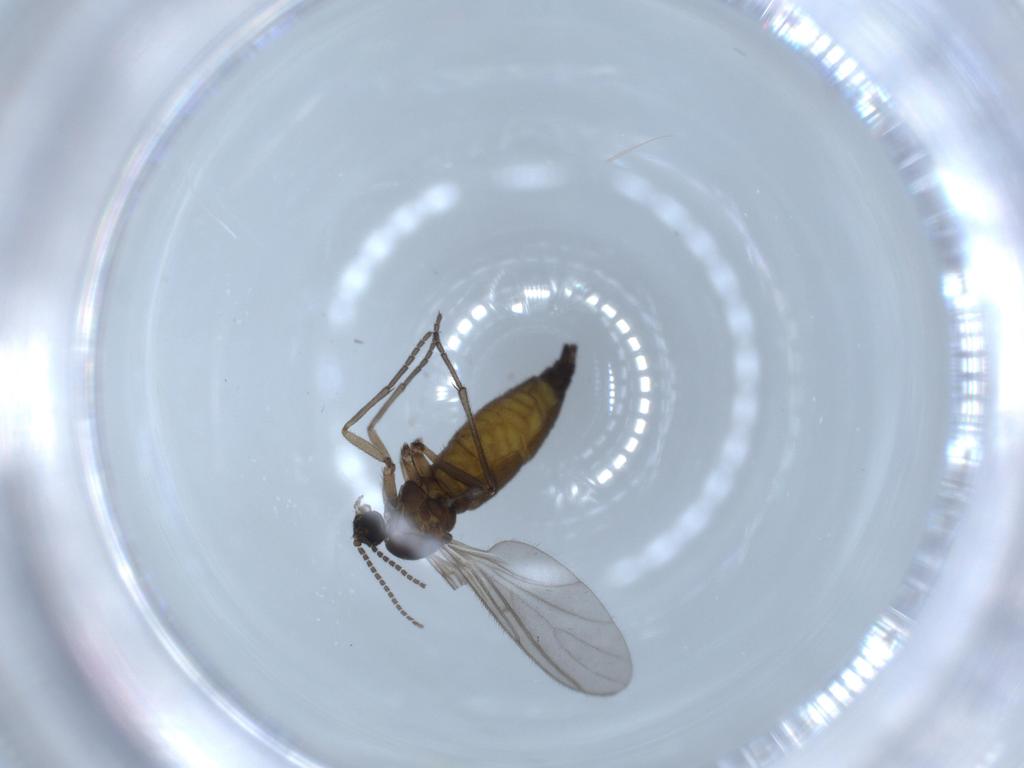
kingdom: Animalia
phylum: Arthropoda
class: Insecta
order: Diptera
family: Sciaridae
